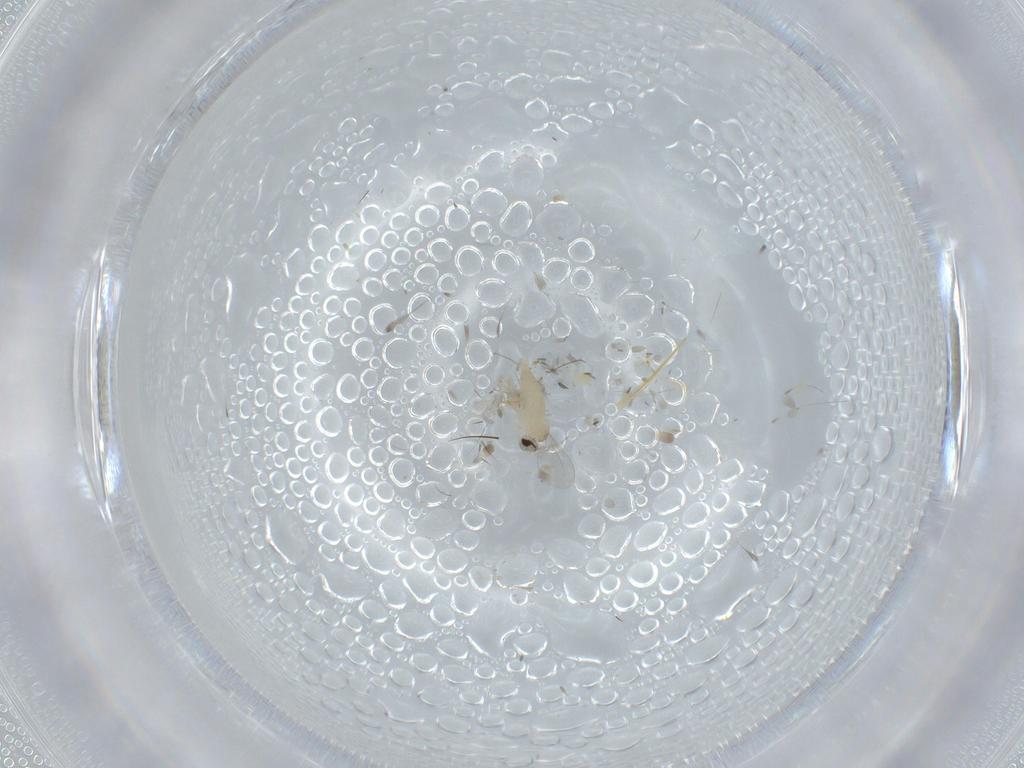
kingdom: Animalia
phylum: Arthropoda
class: Insecta
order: Diptera
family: Cecidomyiidae
